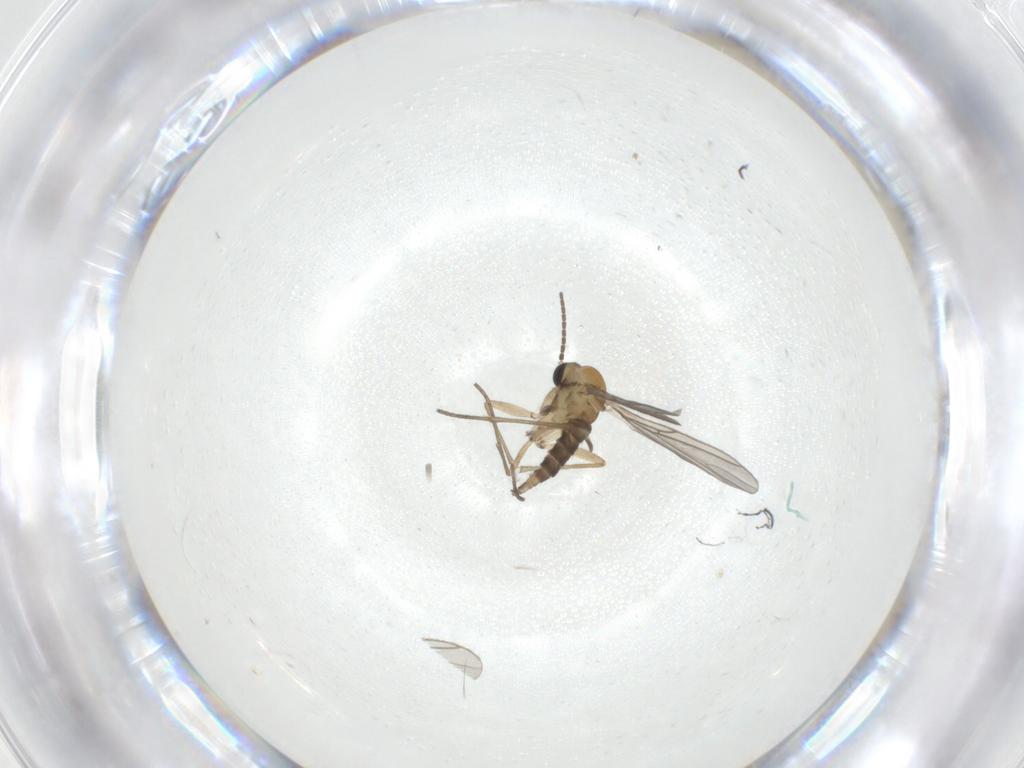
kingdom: Animalia
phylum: Arthropoda
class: Insecta
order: Diptera
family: Sciaridae
